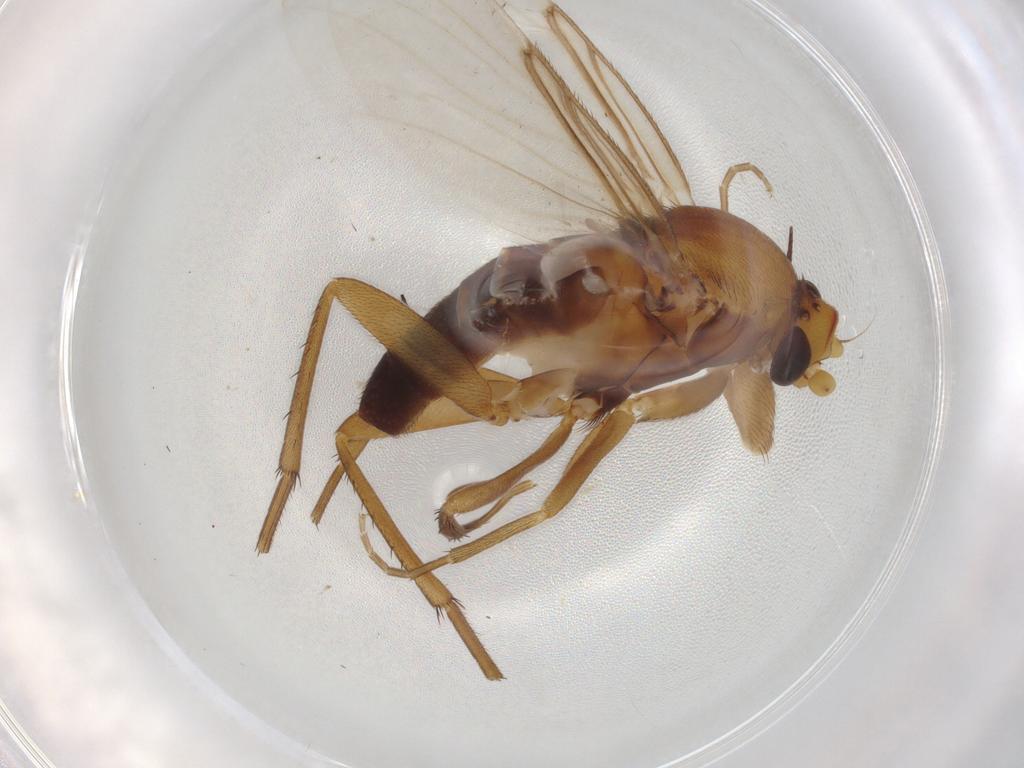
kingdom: Animalia
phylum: Arthropoda
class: Insecta
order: Diptera
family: Phoridae
